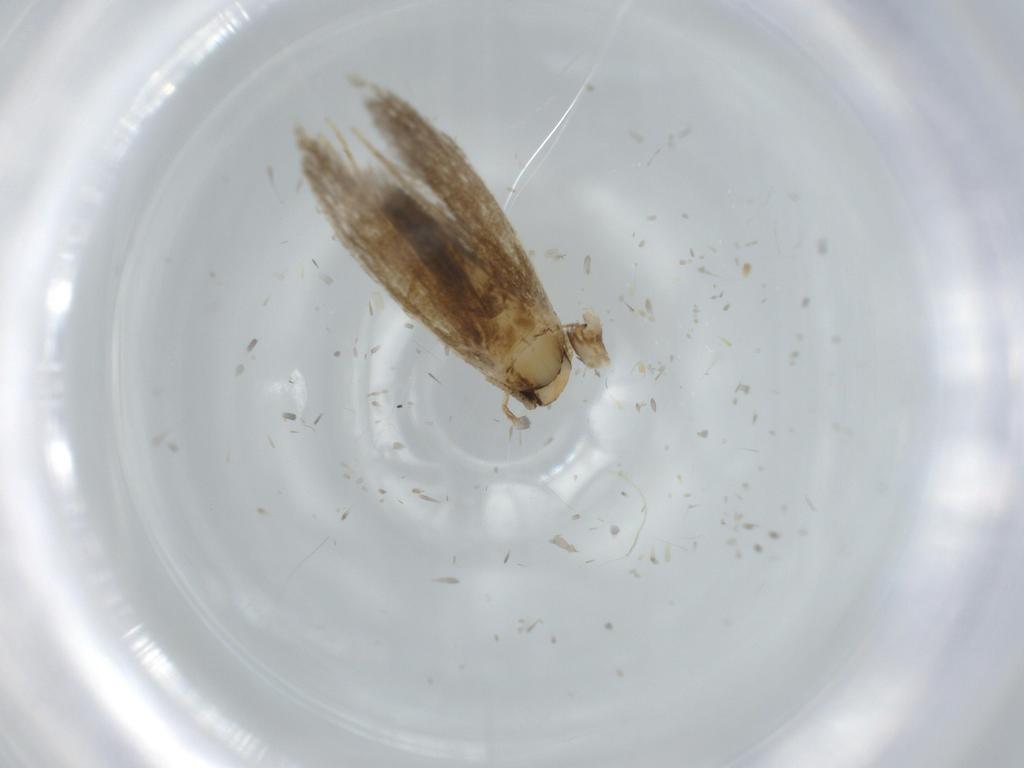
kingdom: Animalia
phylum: Arthropoda
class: Insecta
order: Lepidoptera
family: Tineidae
